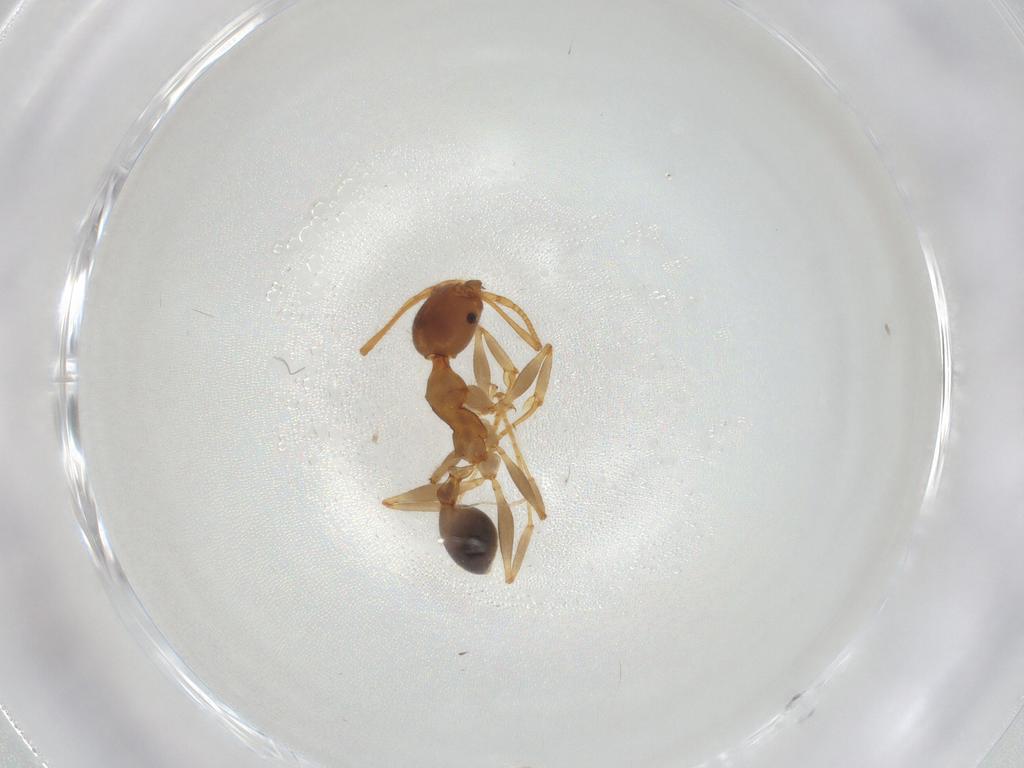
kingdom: Animalia
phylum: Arthropoda
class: Insecta
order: Hymenoptera
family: Formicidae
